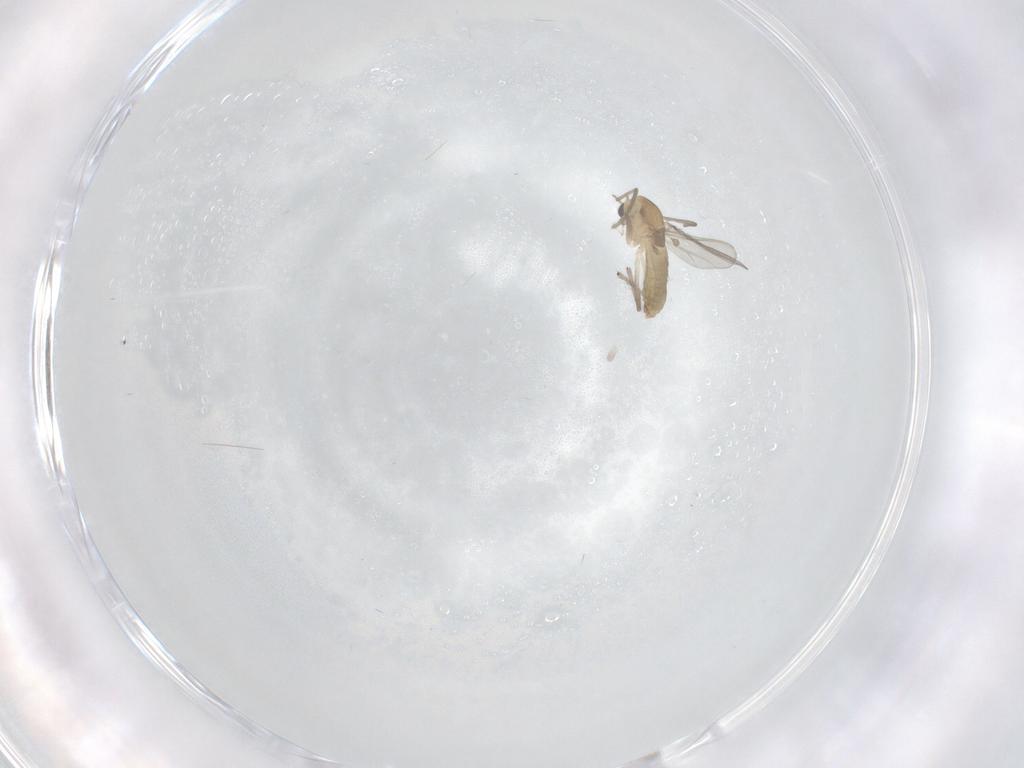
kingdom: Animalia
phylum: Arthropoda
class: Insecta
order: Diptera
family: Chironomidae
